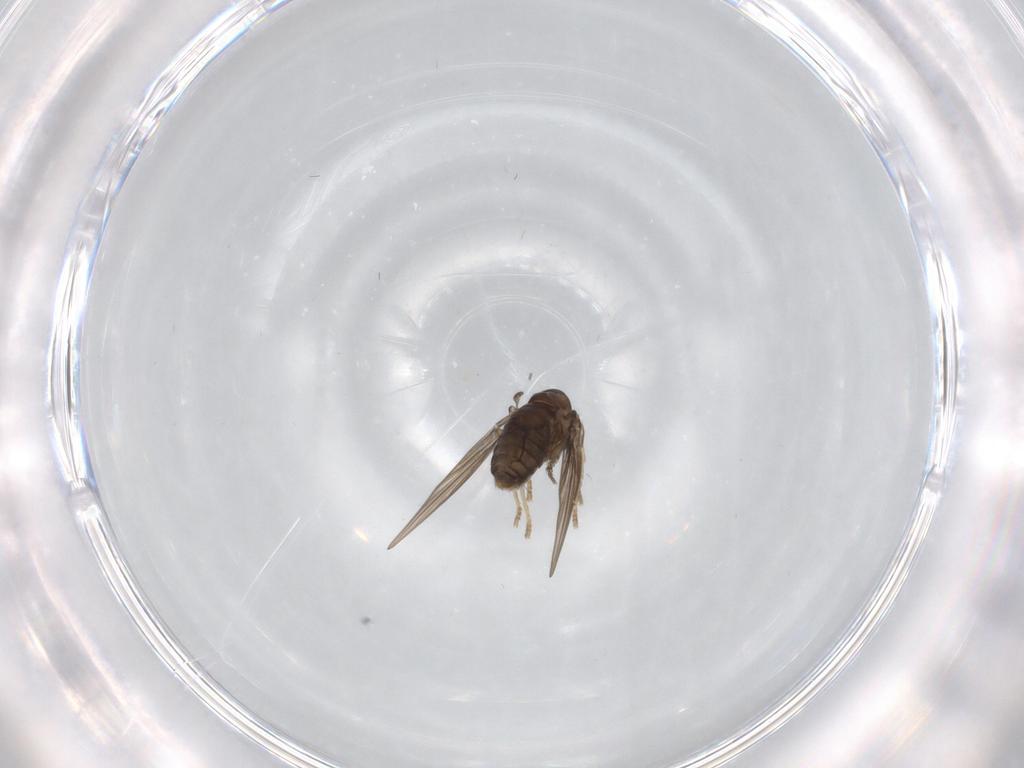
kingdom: Animalia
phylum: Arthropoda
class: Insecta
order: Diptera
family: Psychodidae
